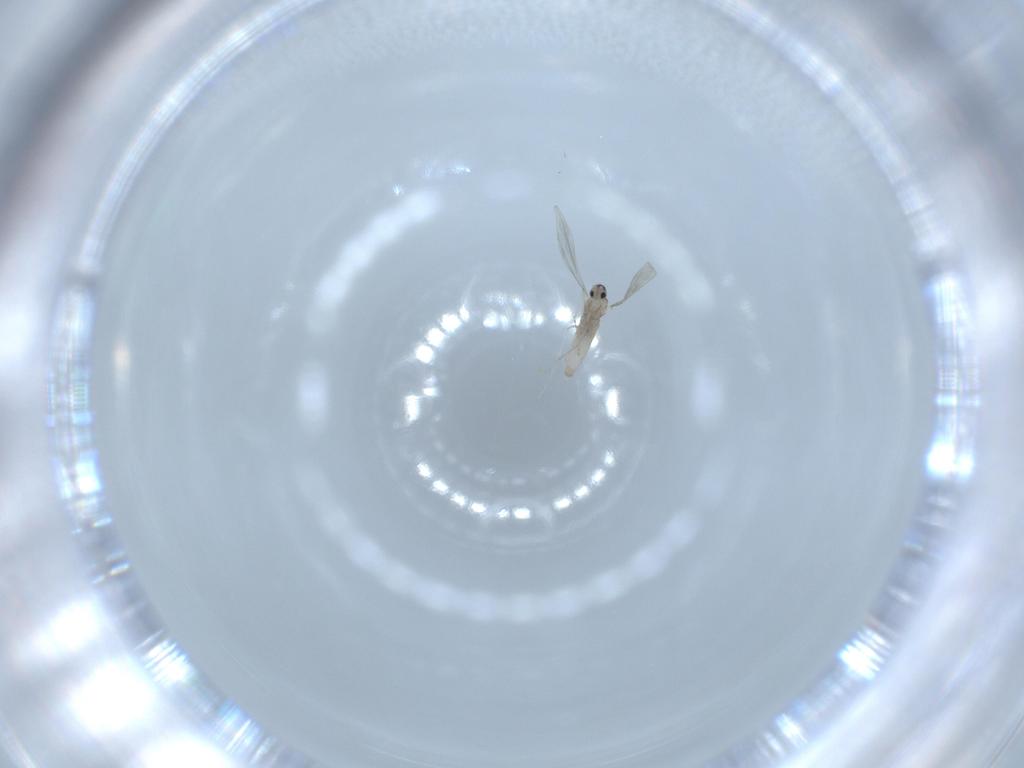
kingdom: Animalia
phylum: Arthropoda
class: Insecta
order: Diptera
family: Cecidomyiidae
